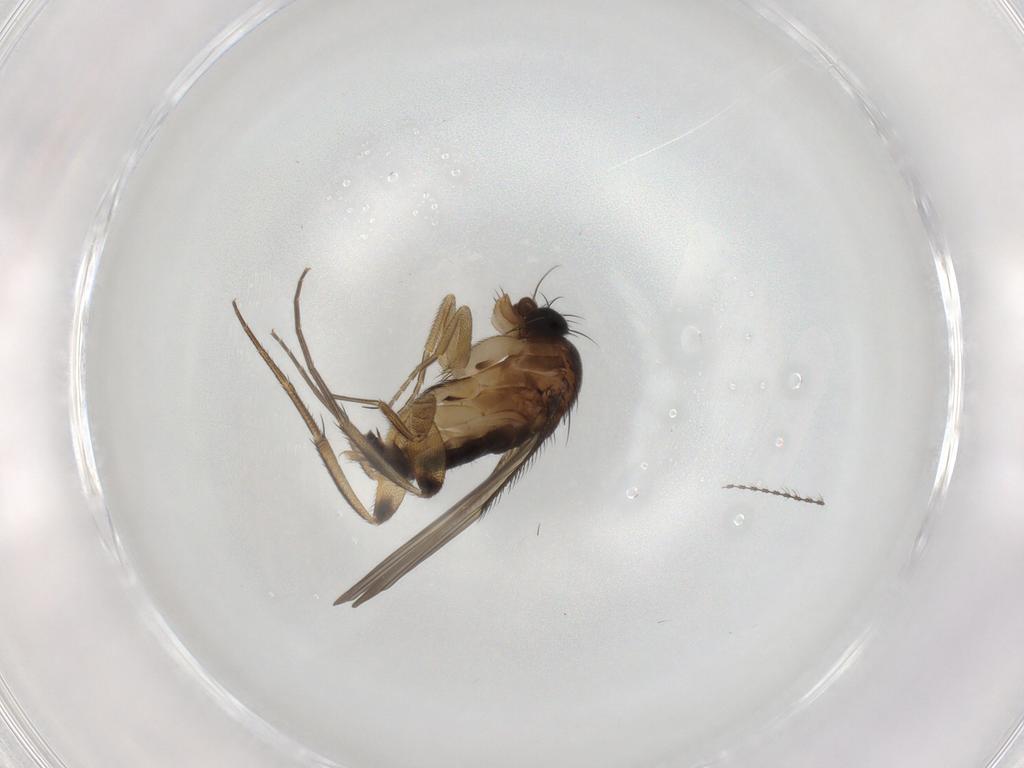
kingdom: Animalia
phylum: Arthropoda
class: Insecta
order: Diptera
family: Phoridae
